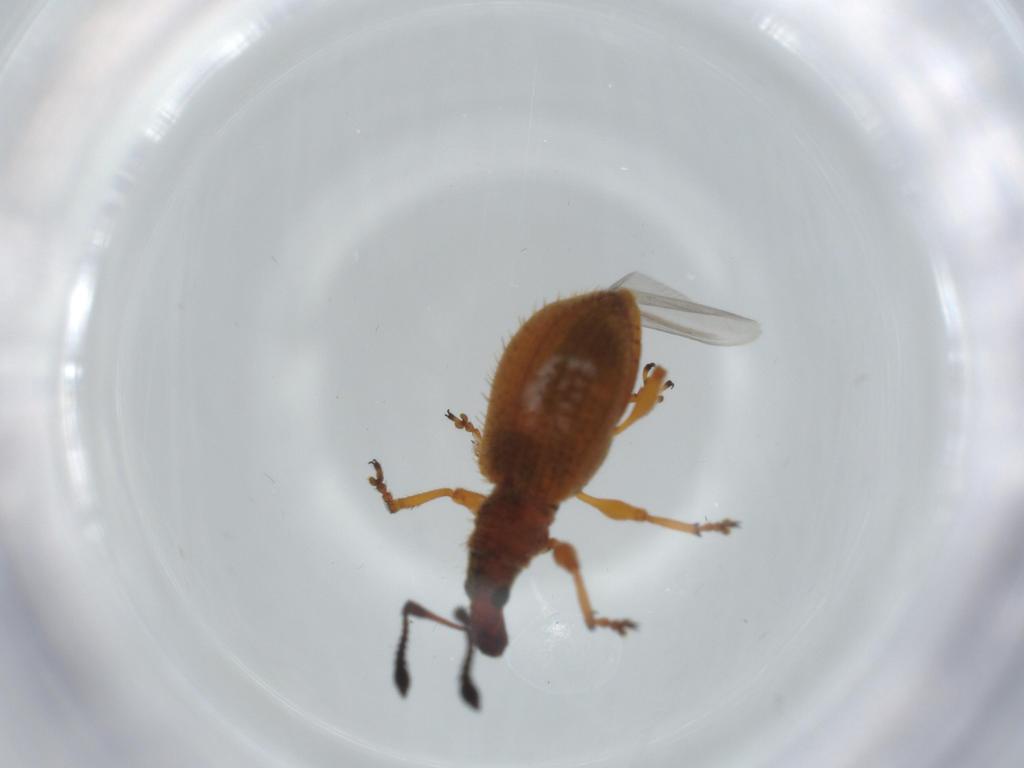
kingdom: Animalia
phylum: Arthropoda
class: Insecta
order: Coleoptera
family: Curculionidae
